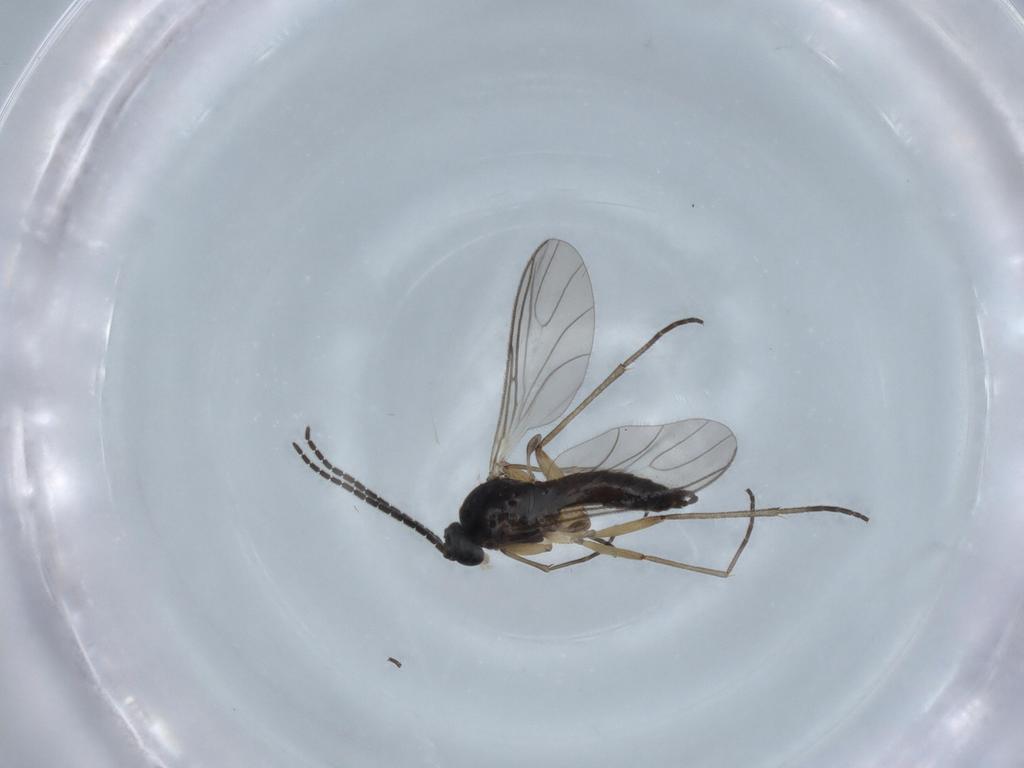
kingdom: Animalia
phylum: Arthropoda
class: Insecta
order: Diptera
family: Sciaridae
